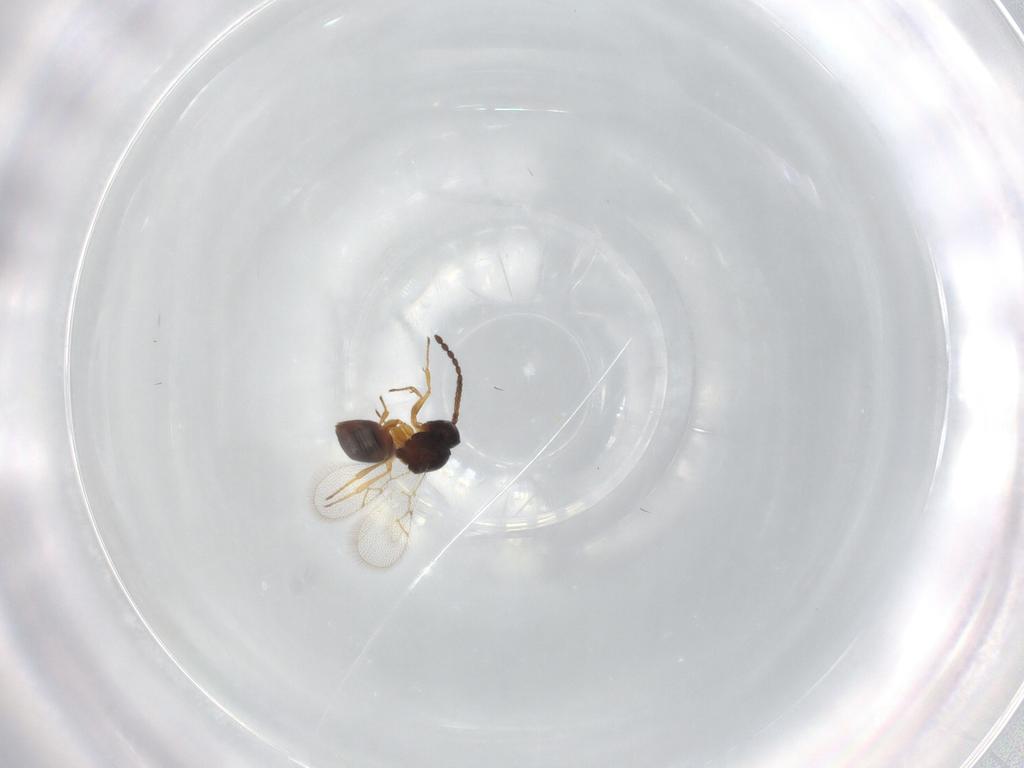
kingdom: Animalia
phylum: Arthropoda
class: Insecta
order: Hymenoptera
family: Figitidae
